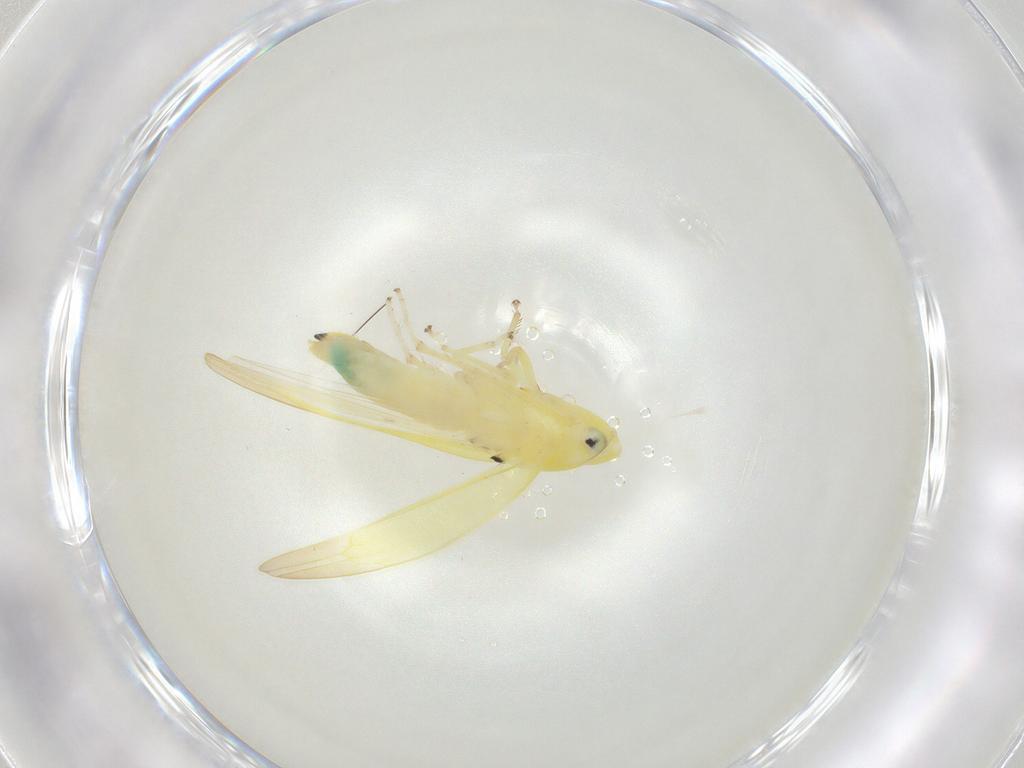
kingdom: Animalia
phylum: Arthropoda
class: Insecta
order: Hemiptera
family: Cicadellidae
